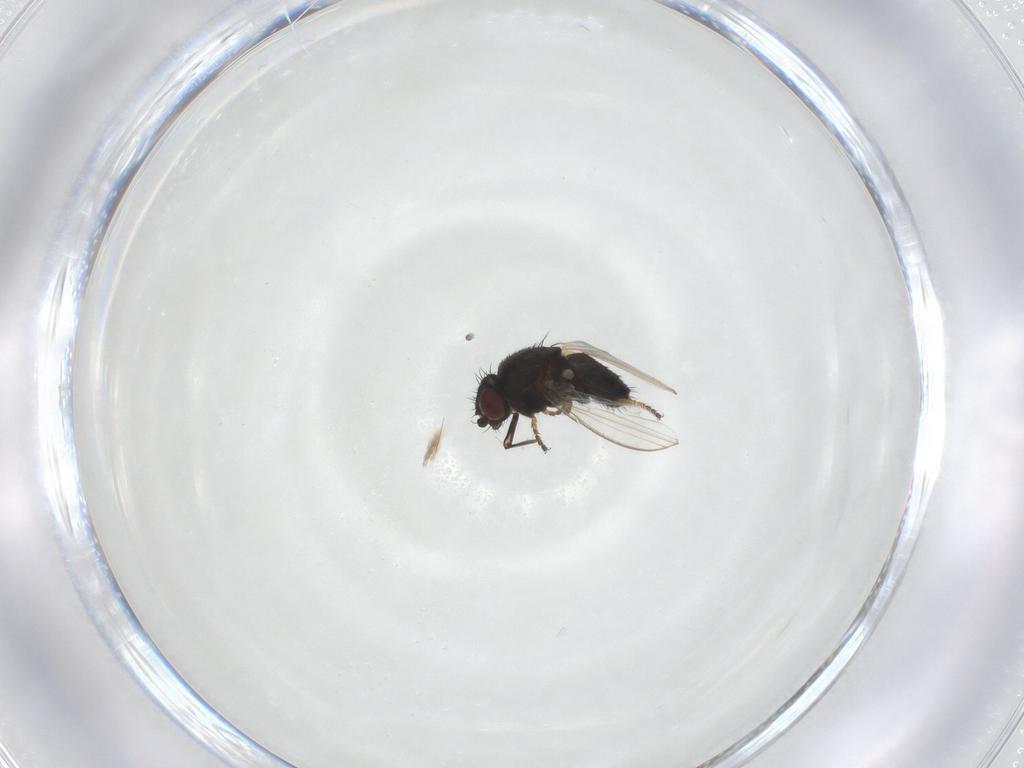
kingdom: Animalia
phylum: Arthropoda
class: Insecta
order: Diptera
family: Milichiidae
